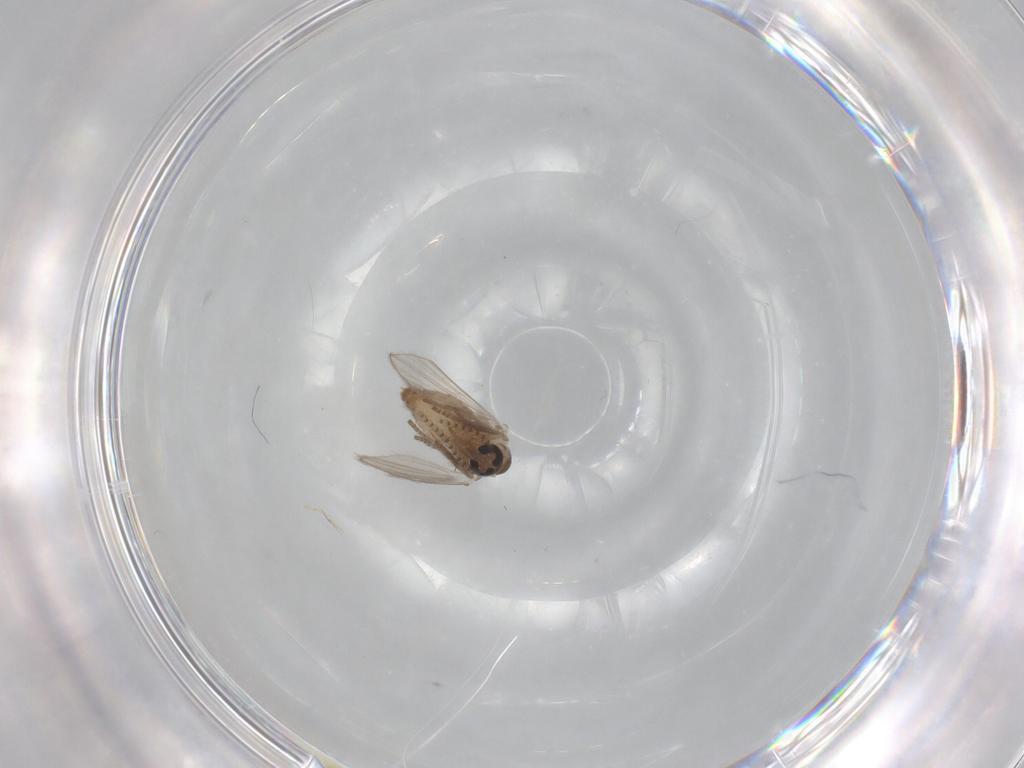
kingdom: Animalia
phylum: Arthropoda
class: Insecta
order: Diptera
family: Psychodidae
